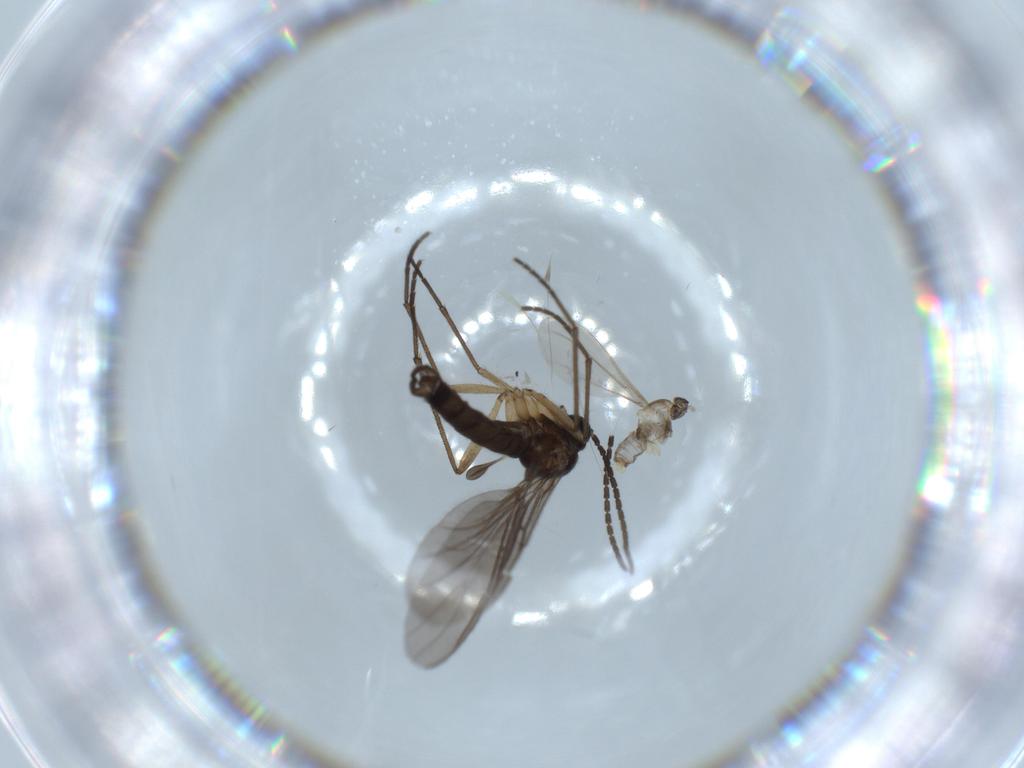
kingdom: Animalia
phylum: Arthropoda
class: Insecta
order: Diptera
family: Sciaridae
